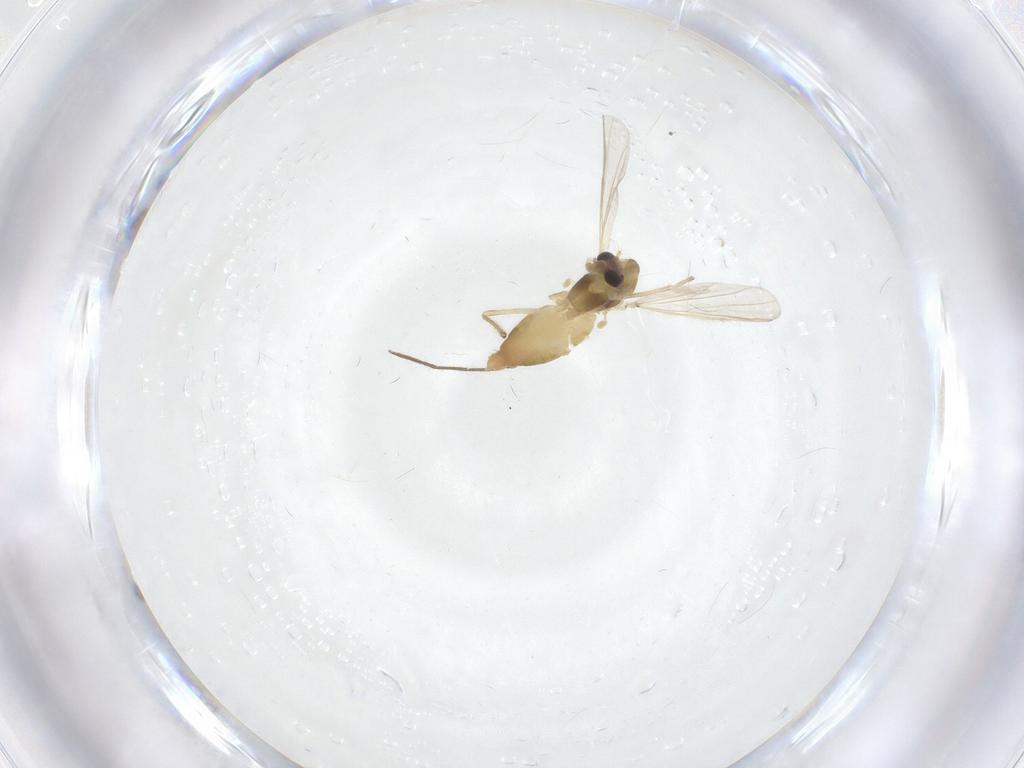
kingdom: Animalia
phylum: Arthropoda
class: Insecta
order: Diptera
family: Chironomidae
